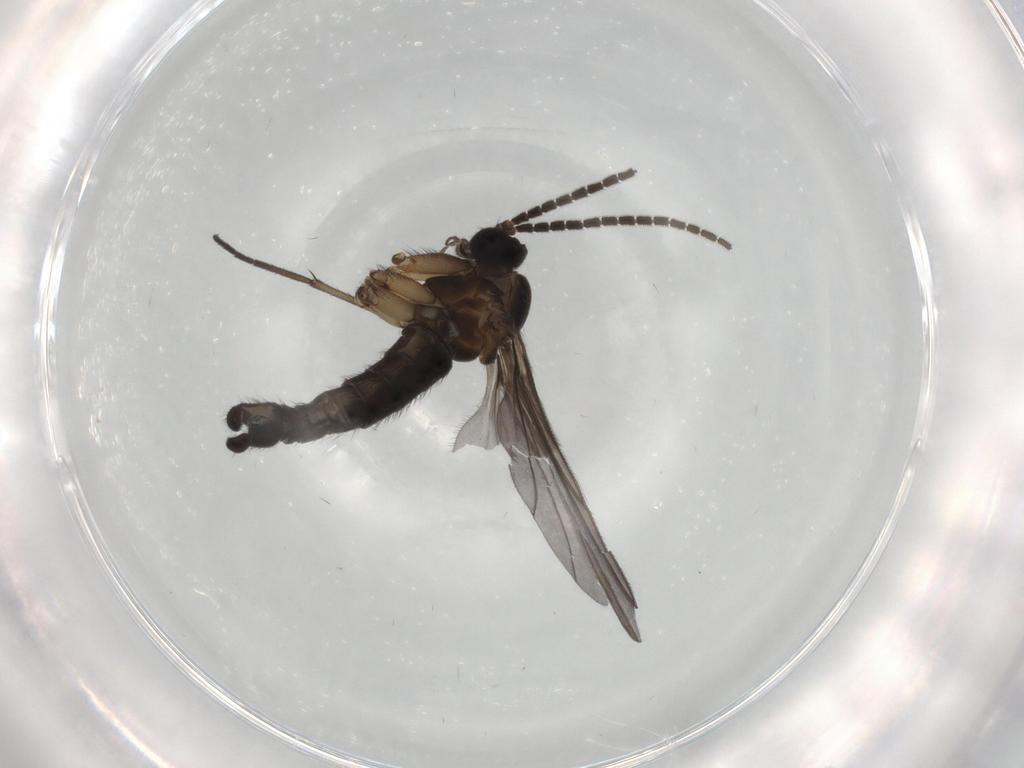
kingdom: Animalia
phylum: Arthropoda
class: Insecta
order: Diptera
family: Sciaridae
